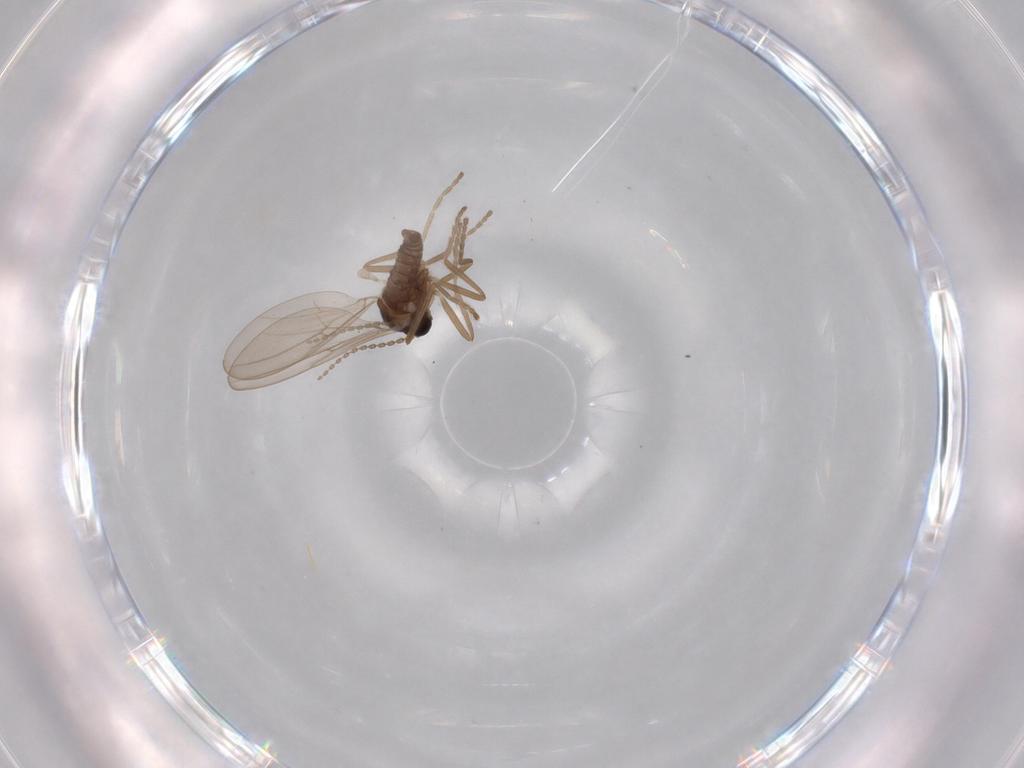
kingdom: Animalia
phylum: Arthropoda
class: Insecta
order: Diptera
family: Cecidomyiidae
